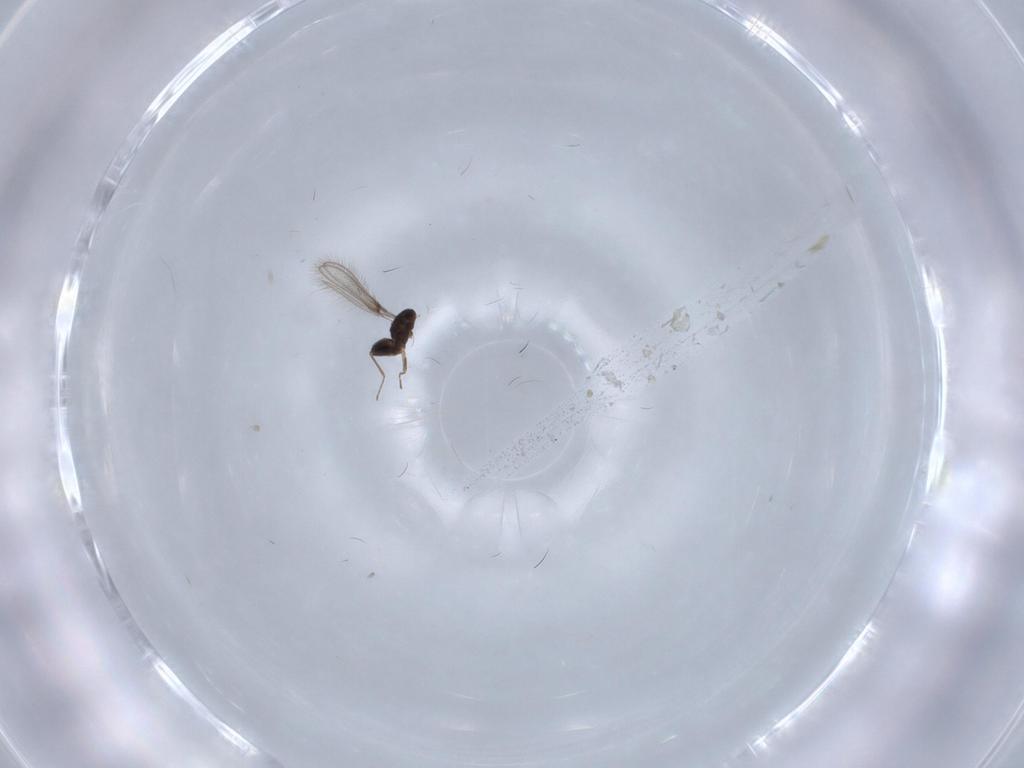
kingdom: Animalia
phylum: Arthropoda
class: Insecta
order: Hymenoptera
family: Mymaridae
